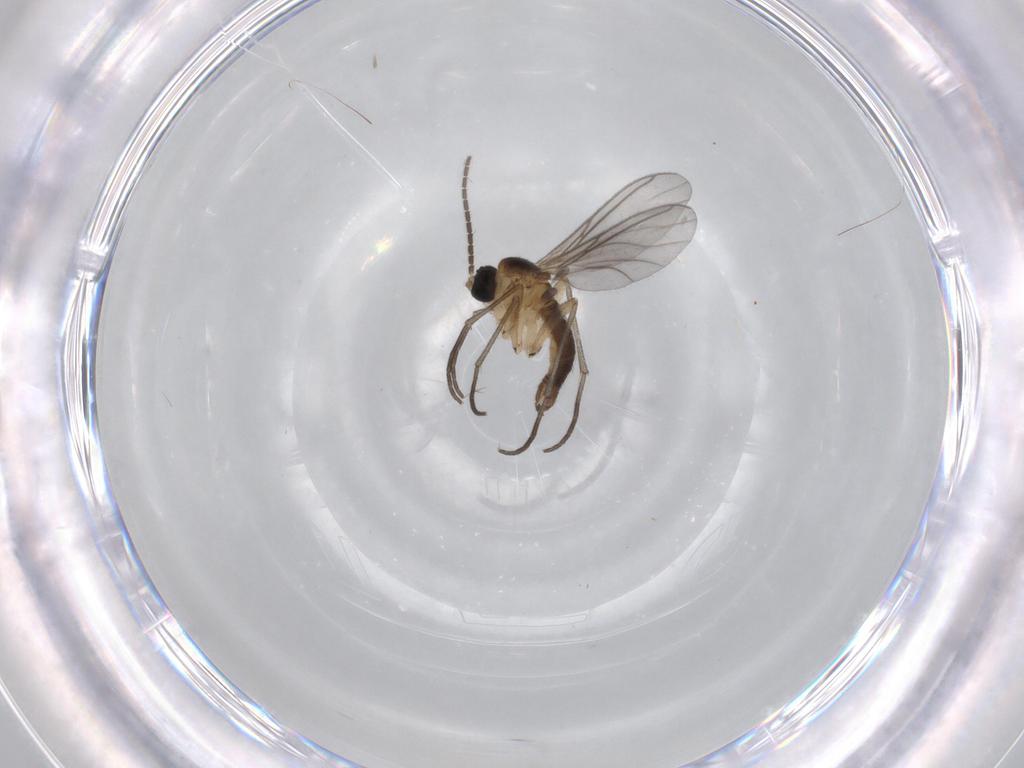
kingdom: Animalia
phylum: Arthropoda
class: Insecta
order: Diptera
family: Sciaridae
